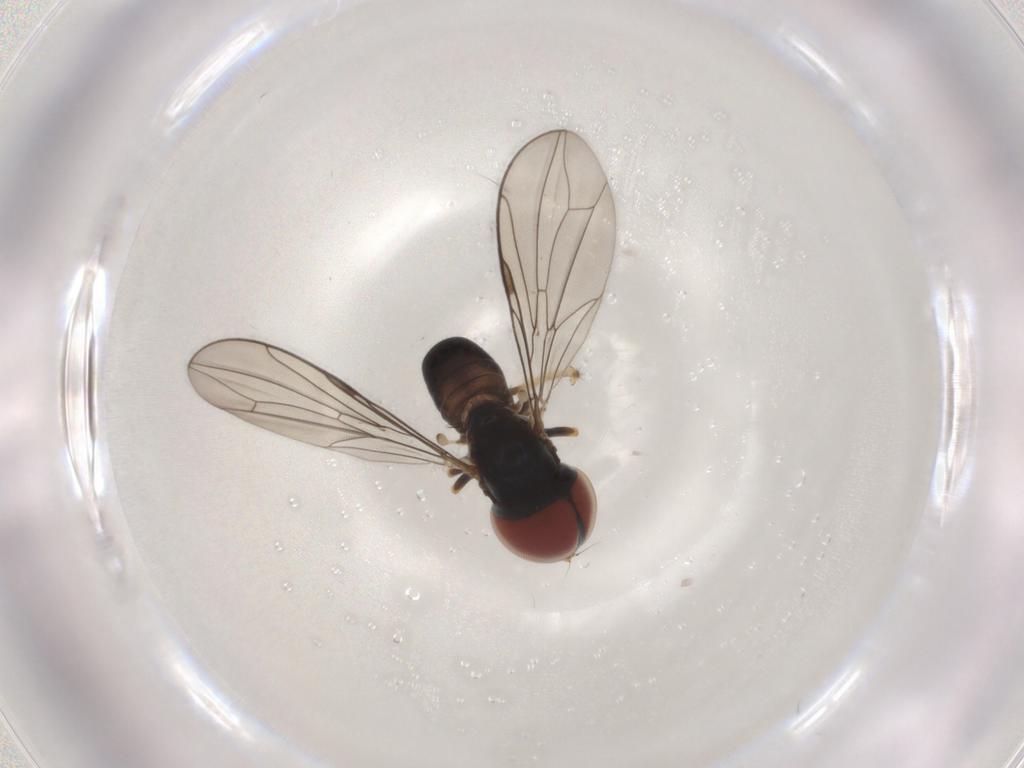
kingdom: Animalia
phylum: Arthropoda
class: Insecta
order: Diptera
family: Pipunculidae
